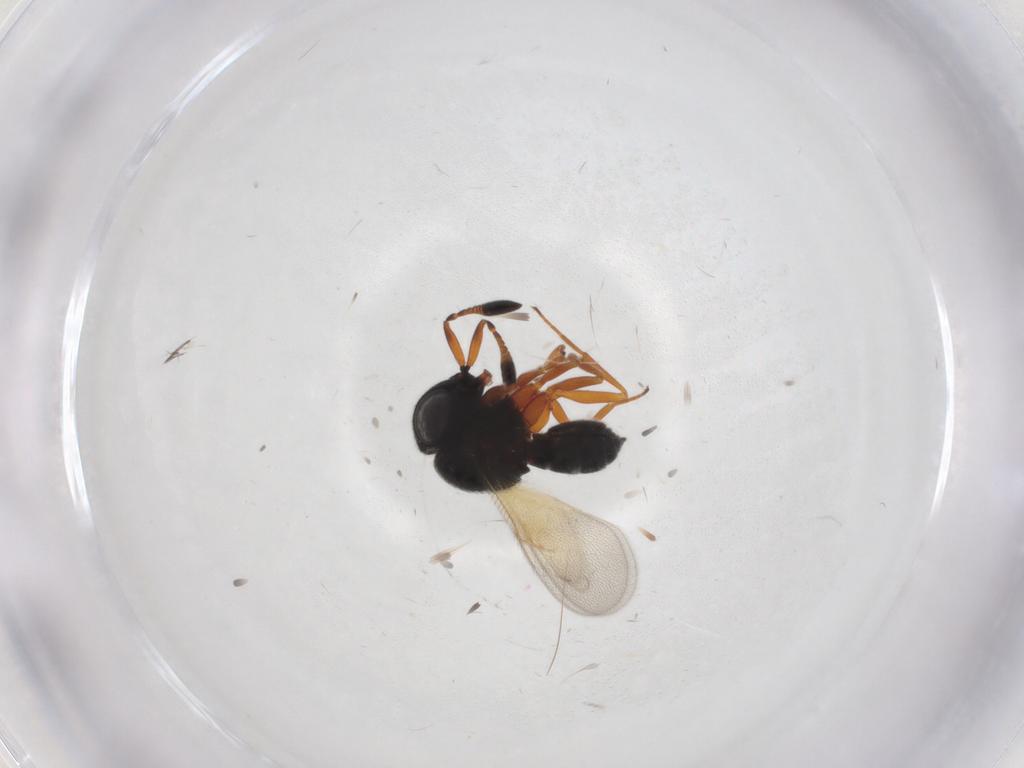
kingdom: Animalia
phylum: Arthropoda
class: Insecta
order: Hymenoptera
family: Scelionidae
